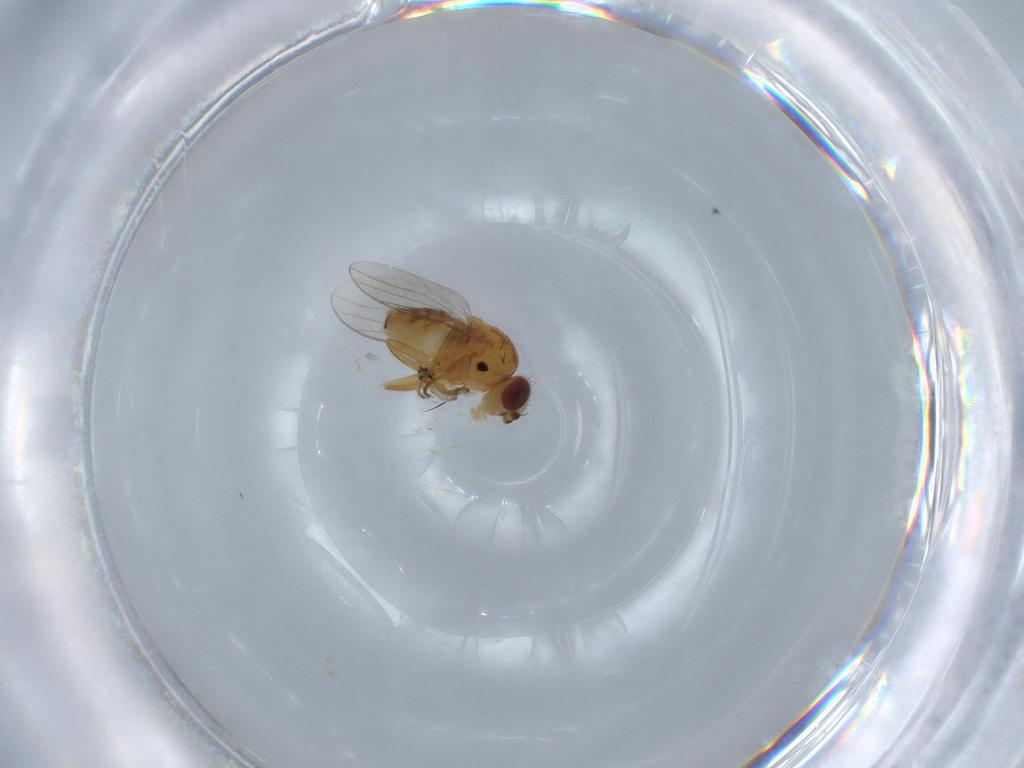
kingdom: Animalia
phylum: Arthropoda
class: Insecta
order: Diptera
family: Chloropidae
